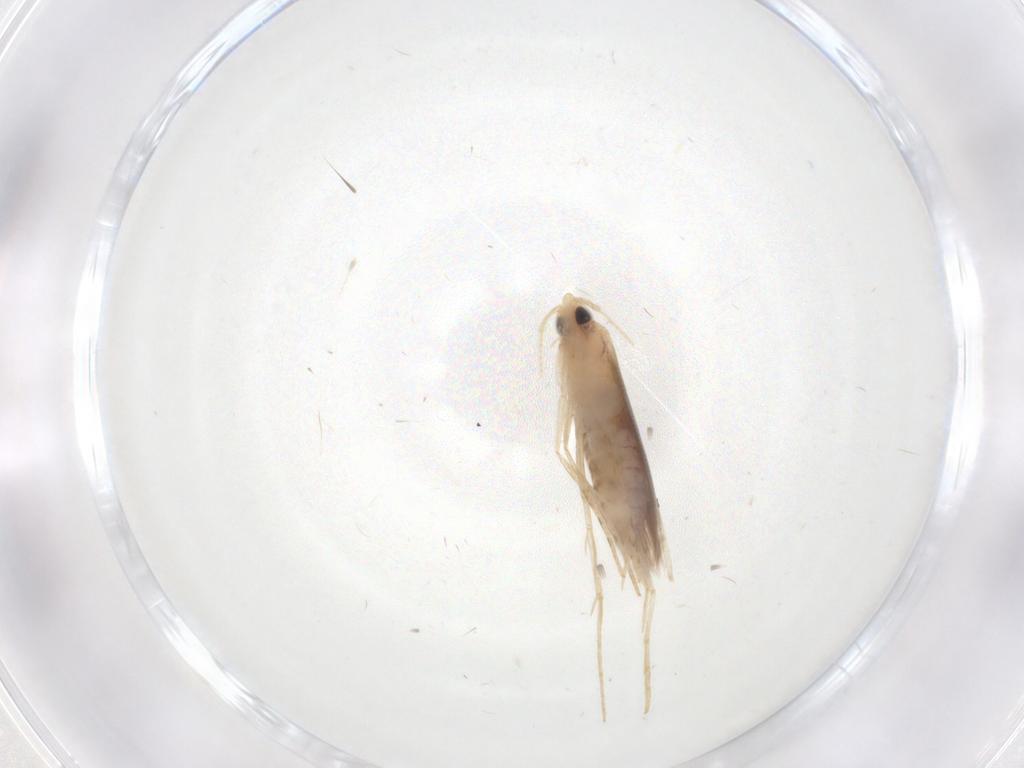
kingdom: Animalia
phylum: Arthropoda
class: Insecta
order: Lepidoptera
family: Lyonetiidae
